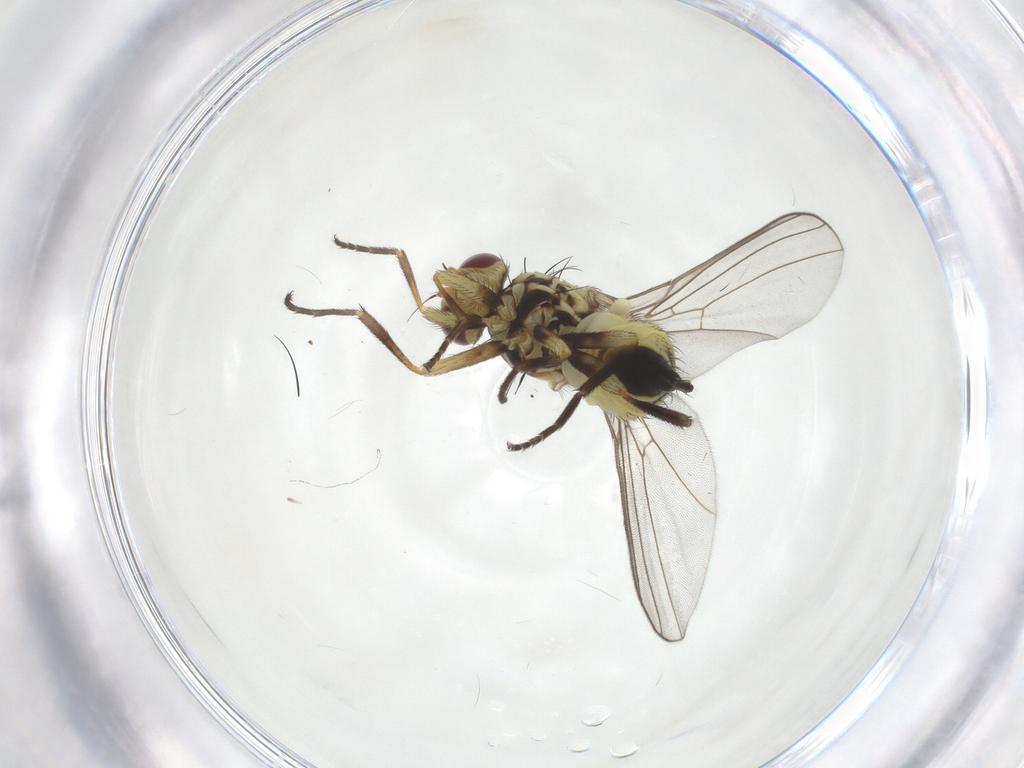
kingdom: Animalia
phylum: Arthropoda
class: Insecta
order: Diptera
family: Agromyzidae
